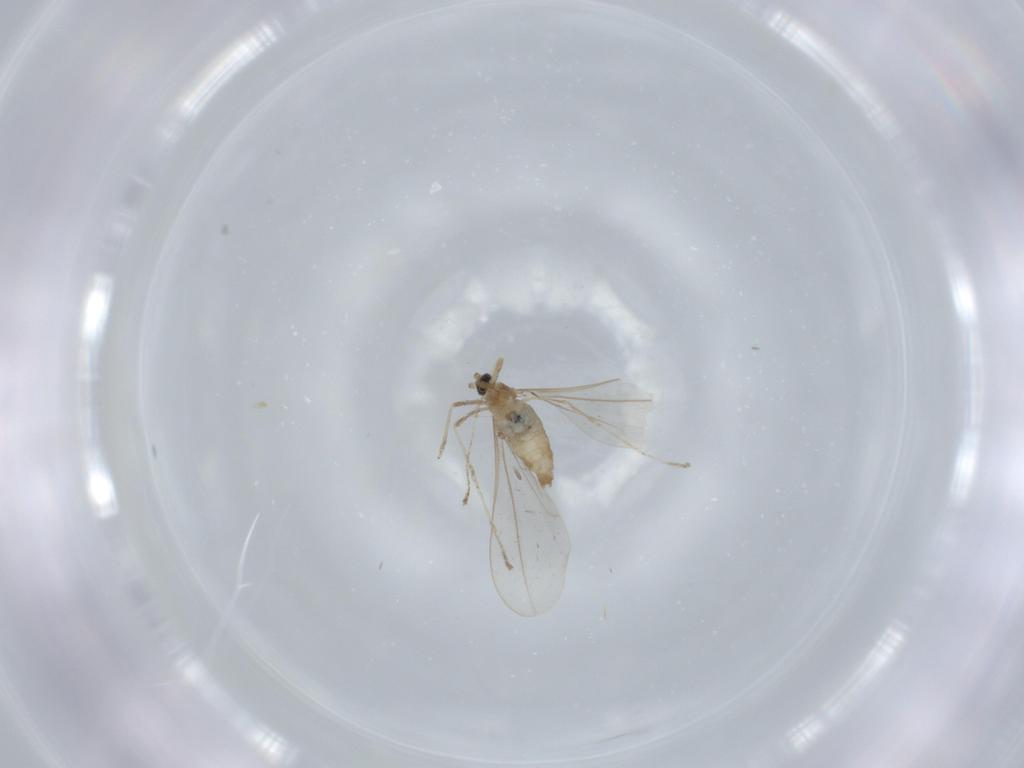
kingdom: Animalia
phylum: Arthropoda
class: Insecta
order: Diptera
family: Cecidomyiidae
